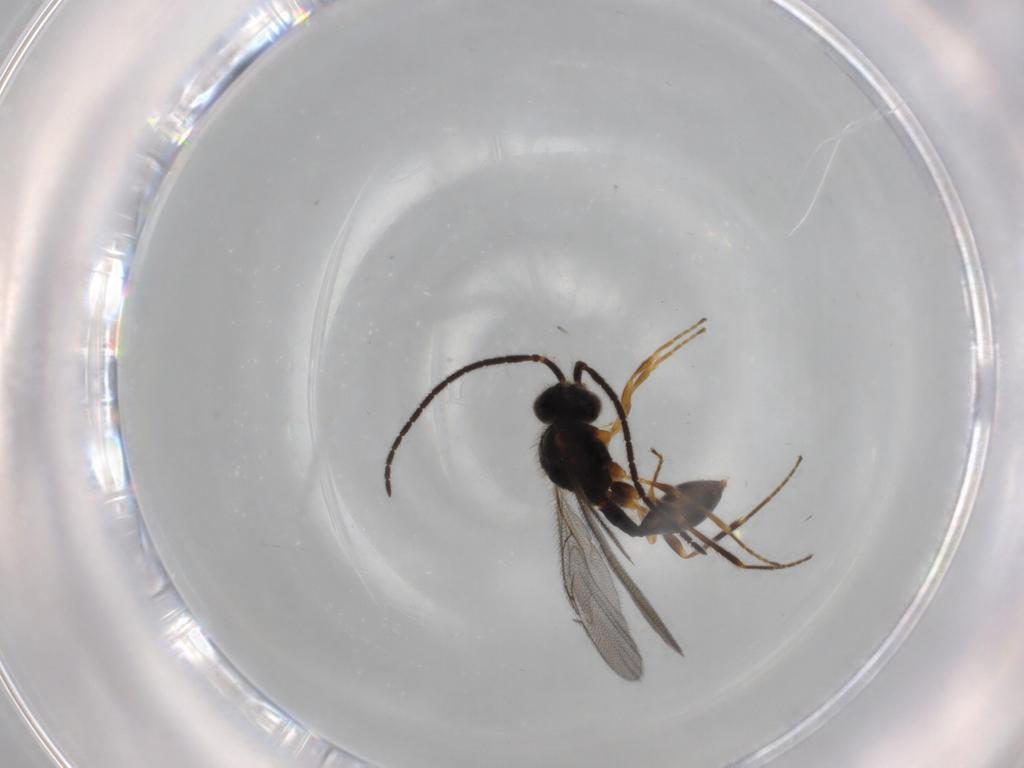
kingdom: Animalia
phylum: Arthropoda
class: Insecta
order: Hymenoptera
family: Diapriidae
